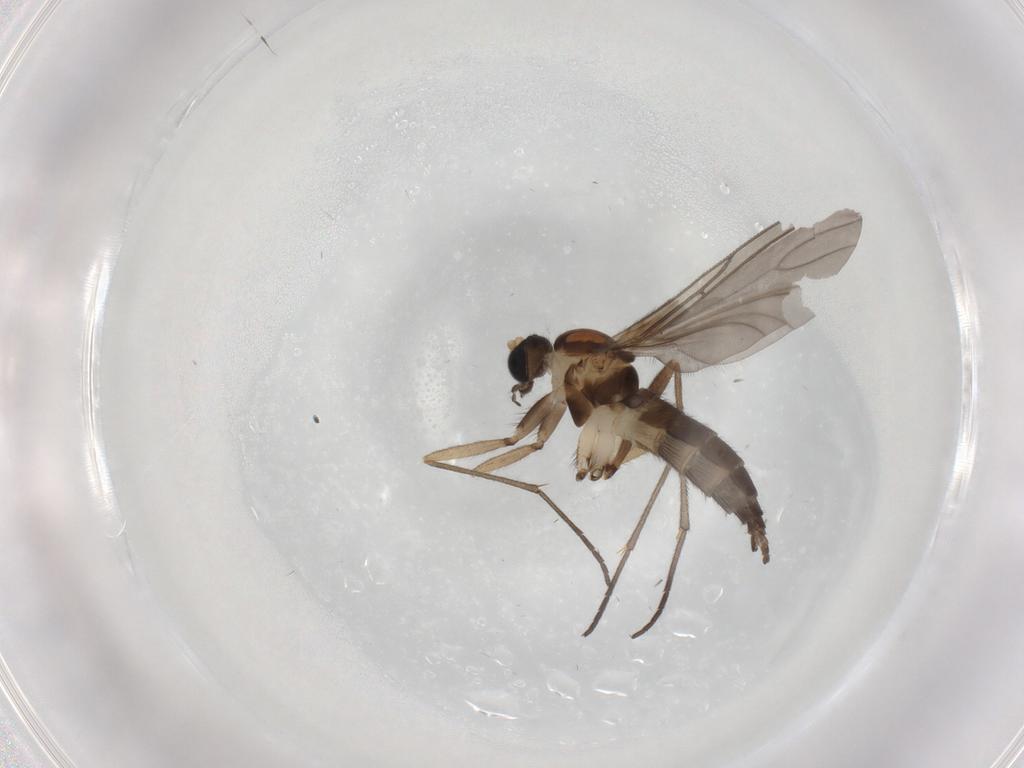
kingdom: Animalia
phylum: Arthropoda
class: Insecta
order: Diptera
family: Sciaridae
